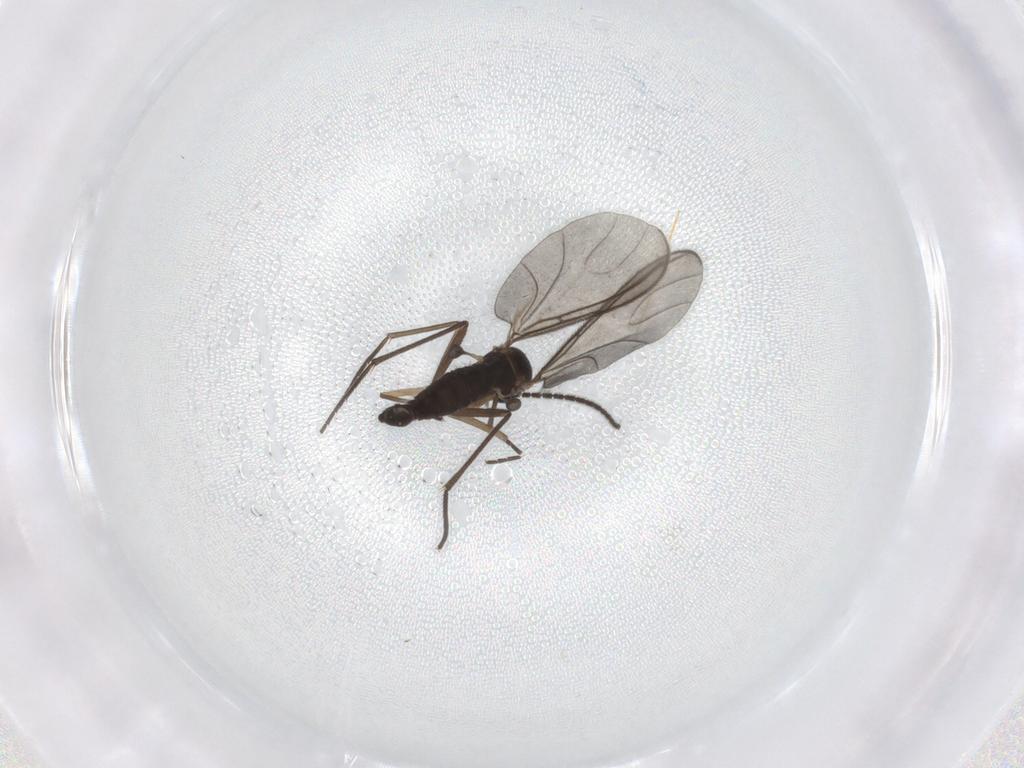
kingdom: Animalia
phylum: Arthropoda
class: Insecta
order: Diptera
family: Sciaridae
